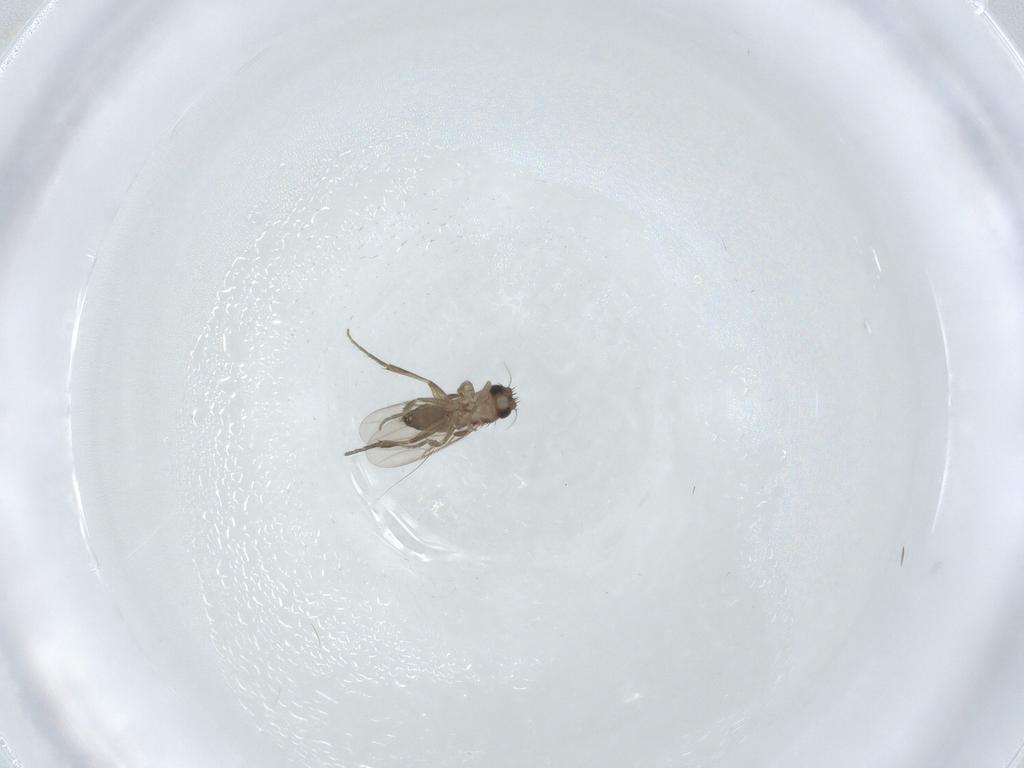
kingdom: Animalia
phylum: Arthropoda
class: Insecta
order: Diptera
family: Phoridae
